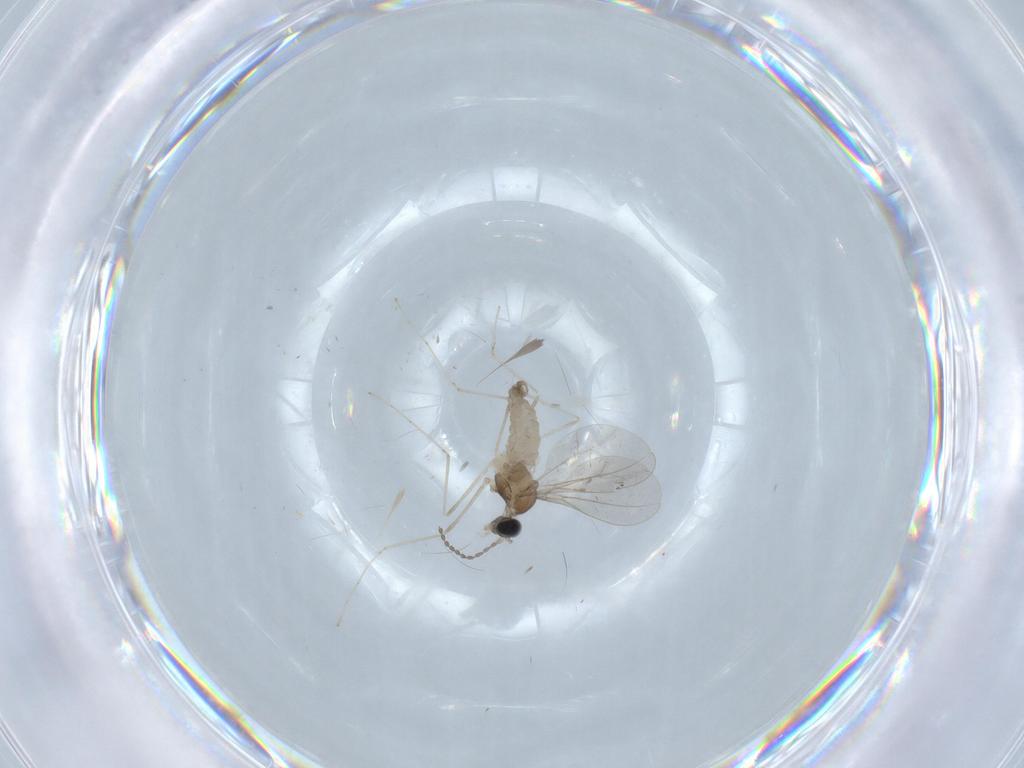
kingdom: Animalia
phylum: Arthropoda
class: Insecta
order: Diptera
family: Cecidomyiidae
